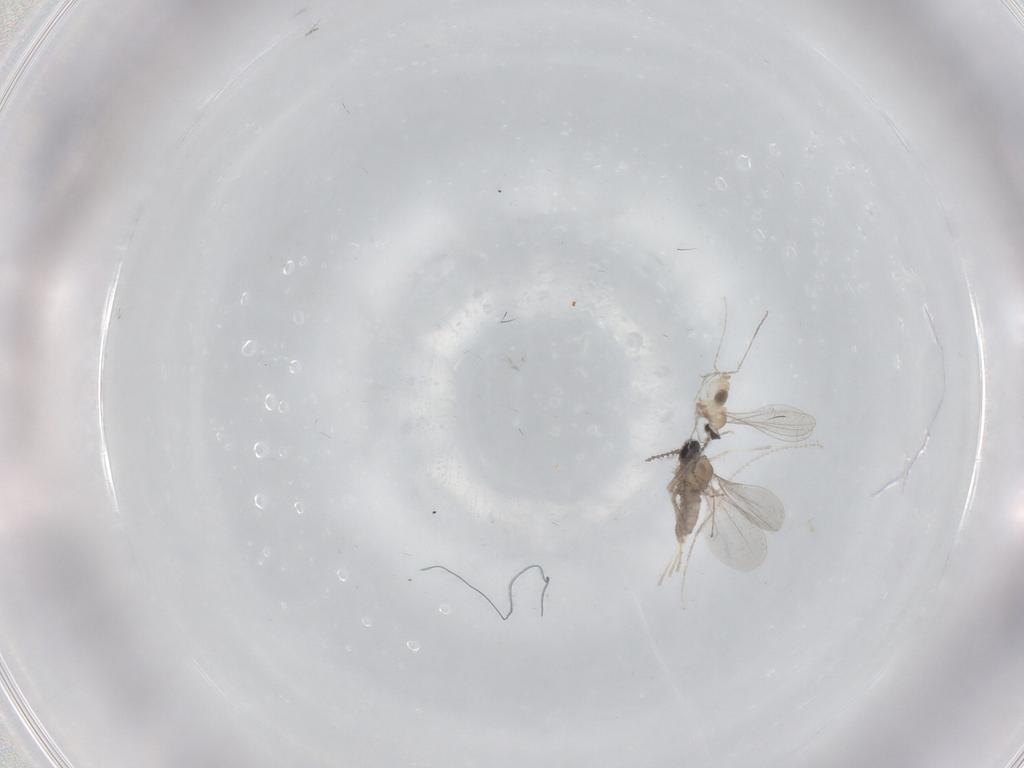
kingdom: Animalia
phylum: Arthropoda
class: Insecta
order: Diptera
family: Cecidomyiidae
